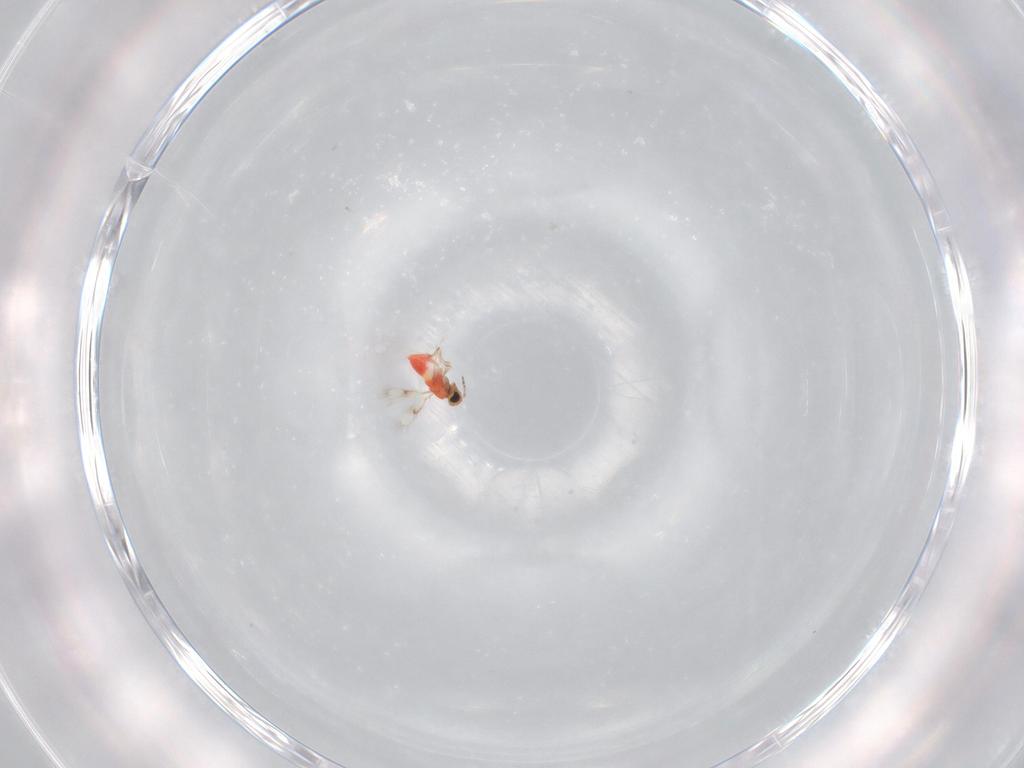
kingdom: Animalia
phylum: Arthropoda
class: Insecta
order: Hymenoptera
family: Trichogrammatidae
